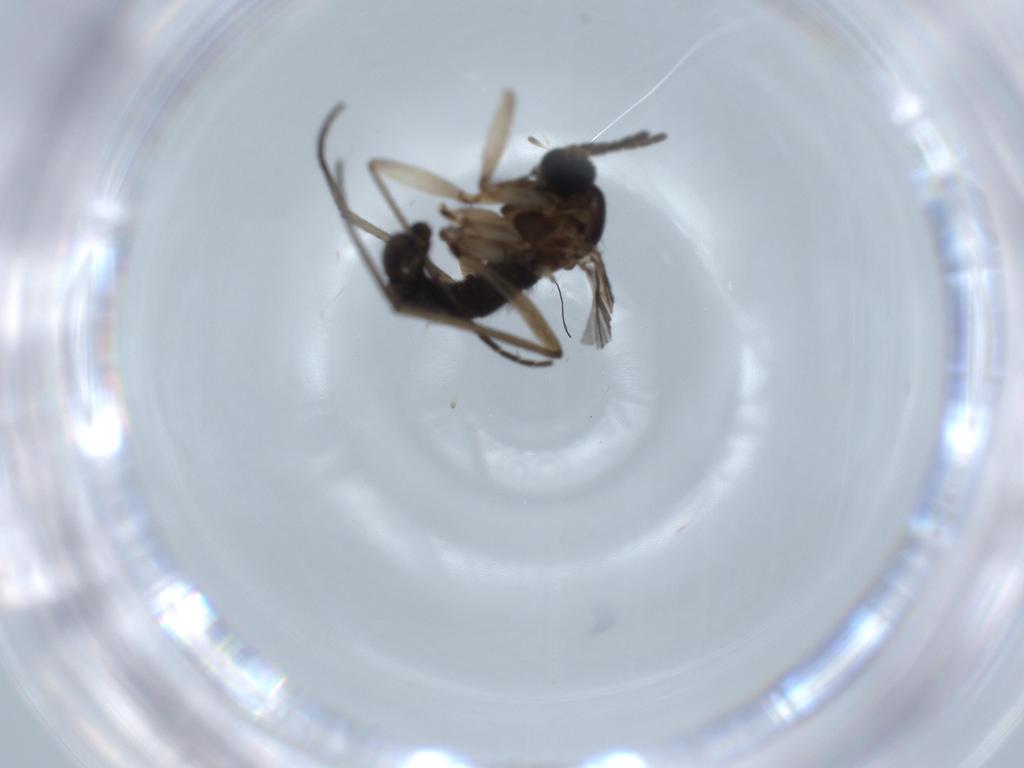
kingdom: Animalia
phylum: Arthropoda
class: Insecta
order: Diptera
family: Sciaridae
